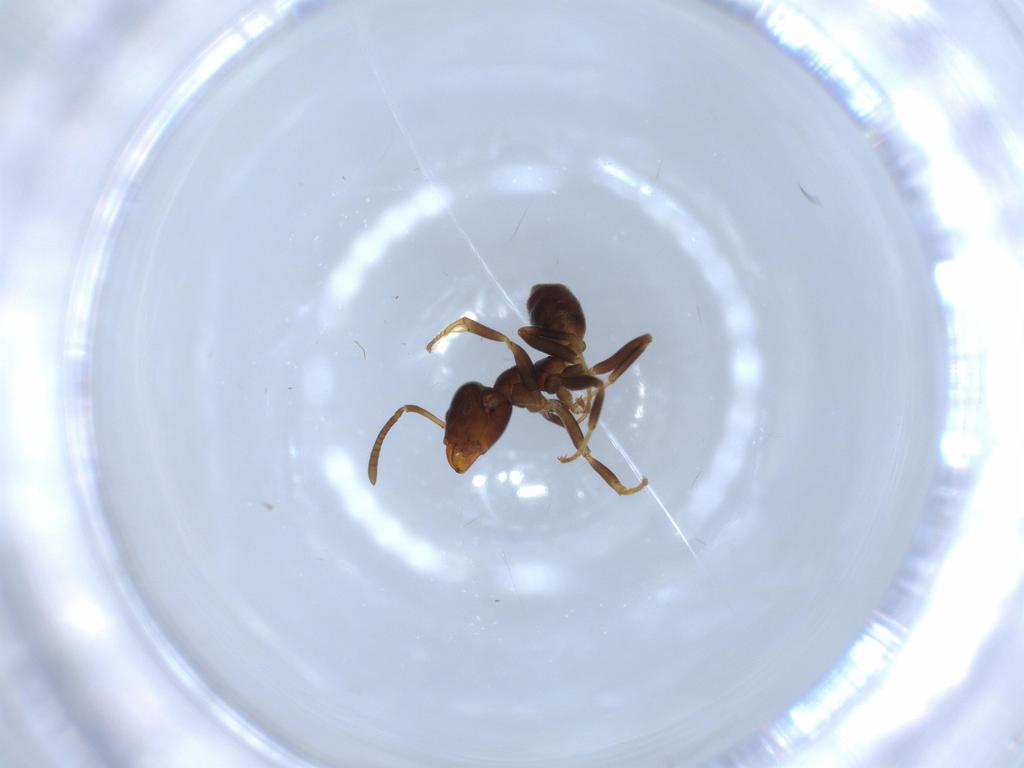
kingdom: Animalia
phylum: Arthropoda
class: Insecta
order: Hymenoptera
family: Formicidae
